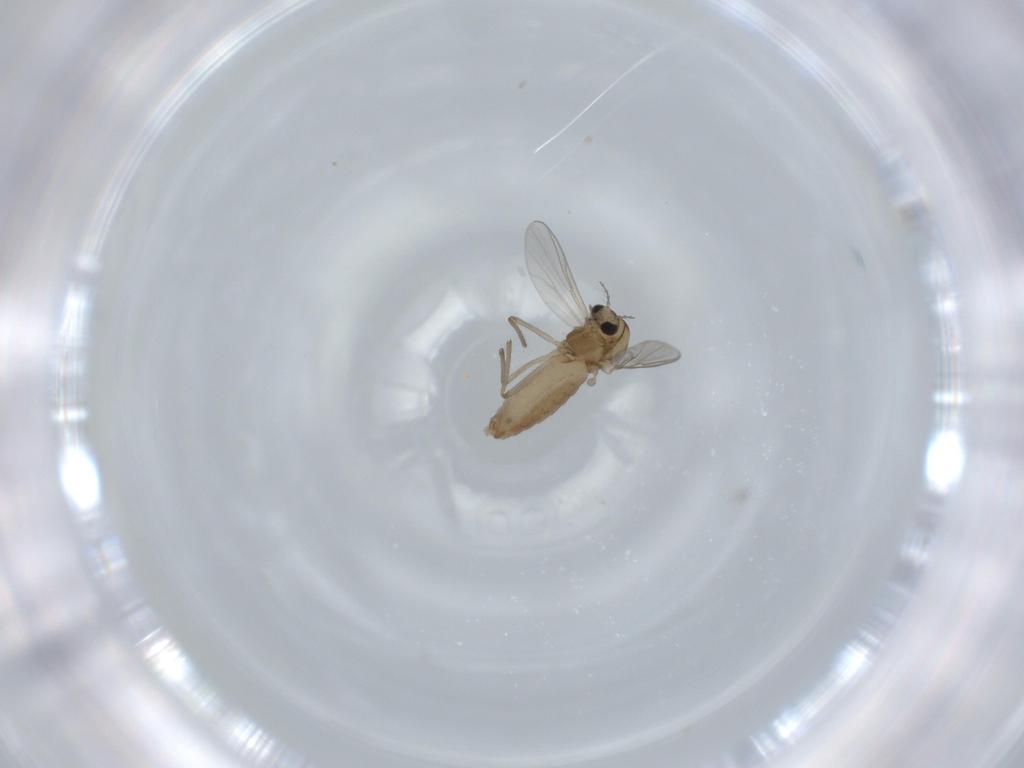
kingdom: Animalia
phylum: Arthropoda
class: Insecta
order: Diptera
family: Chironomidae
